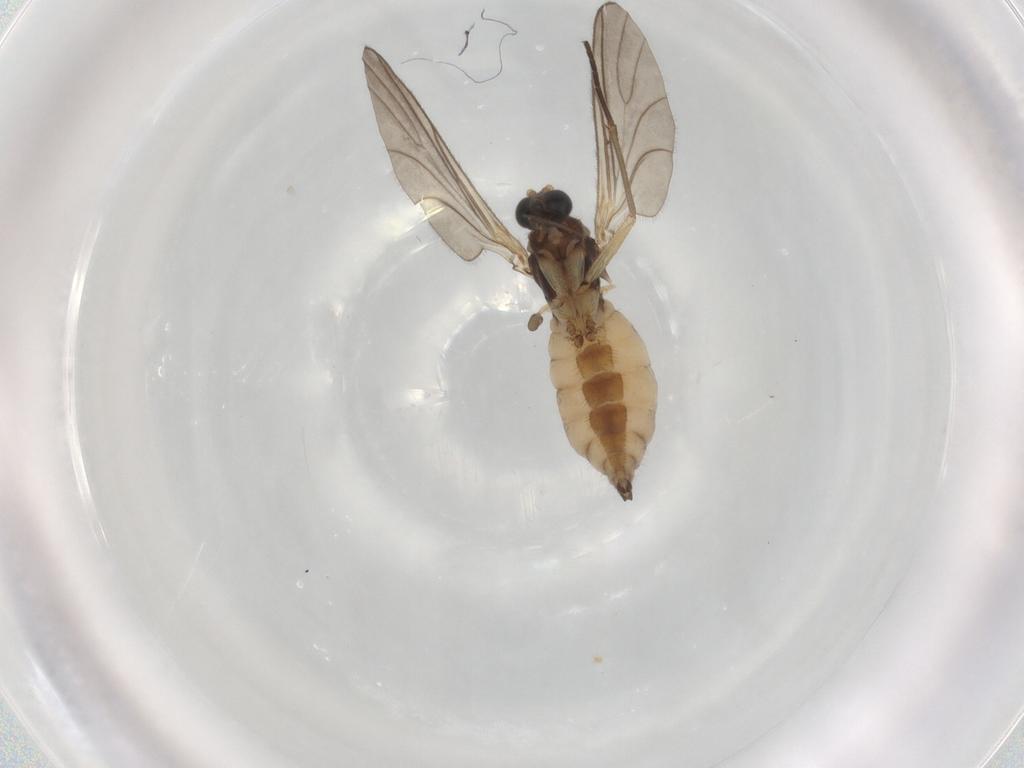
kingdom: Animalia
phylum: Arthropoda
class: Insecta
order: Diptera
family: Sciaridae
